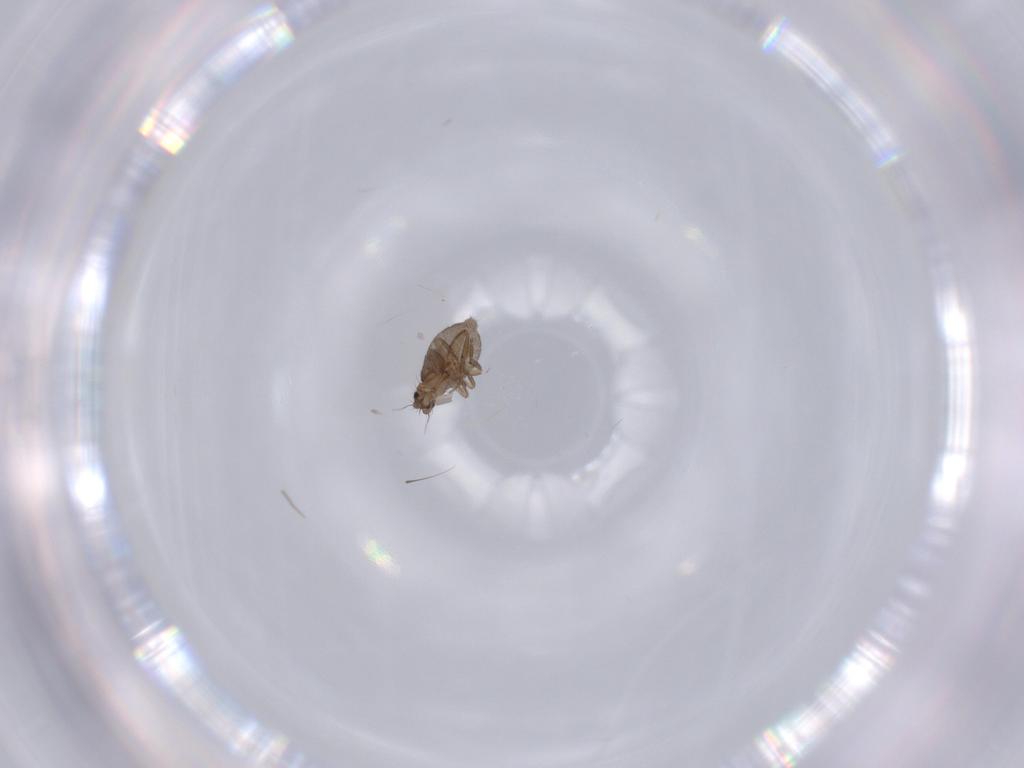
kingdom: Animalia
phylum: Arthropoda
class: Insecta
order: Diptera
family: Phoridae
